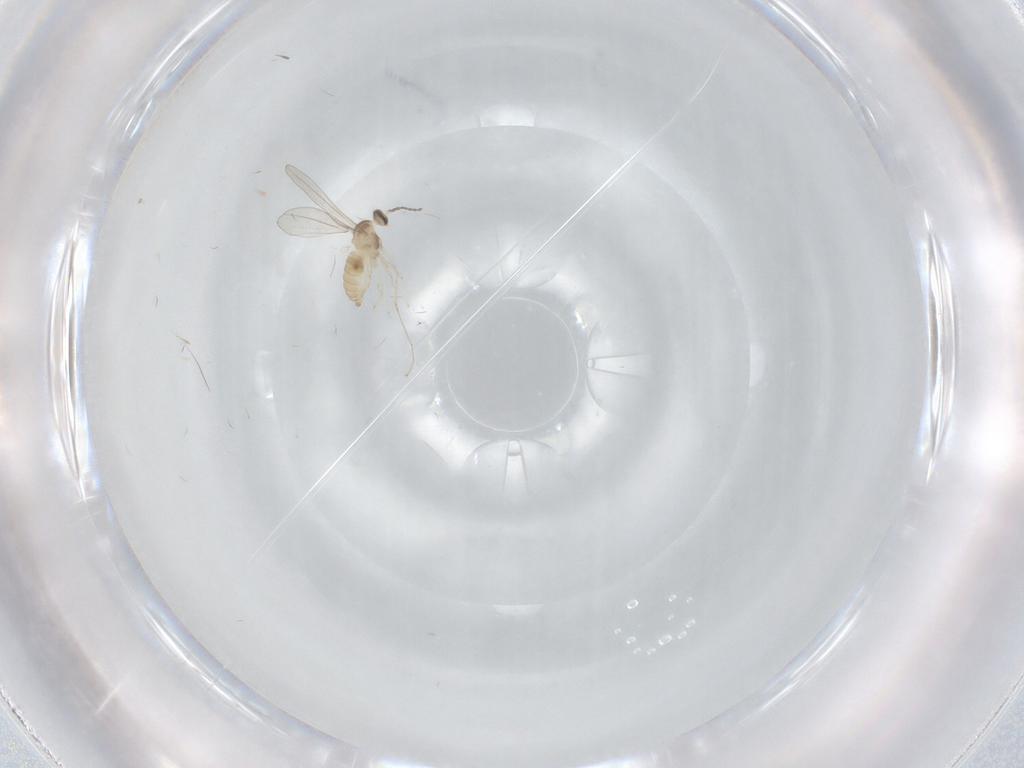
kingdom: Animalia
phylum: Arthropoda
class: Insecta
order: Diptera
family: Cecidomyiidae
